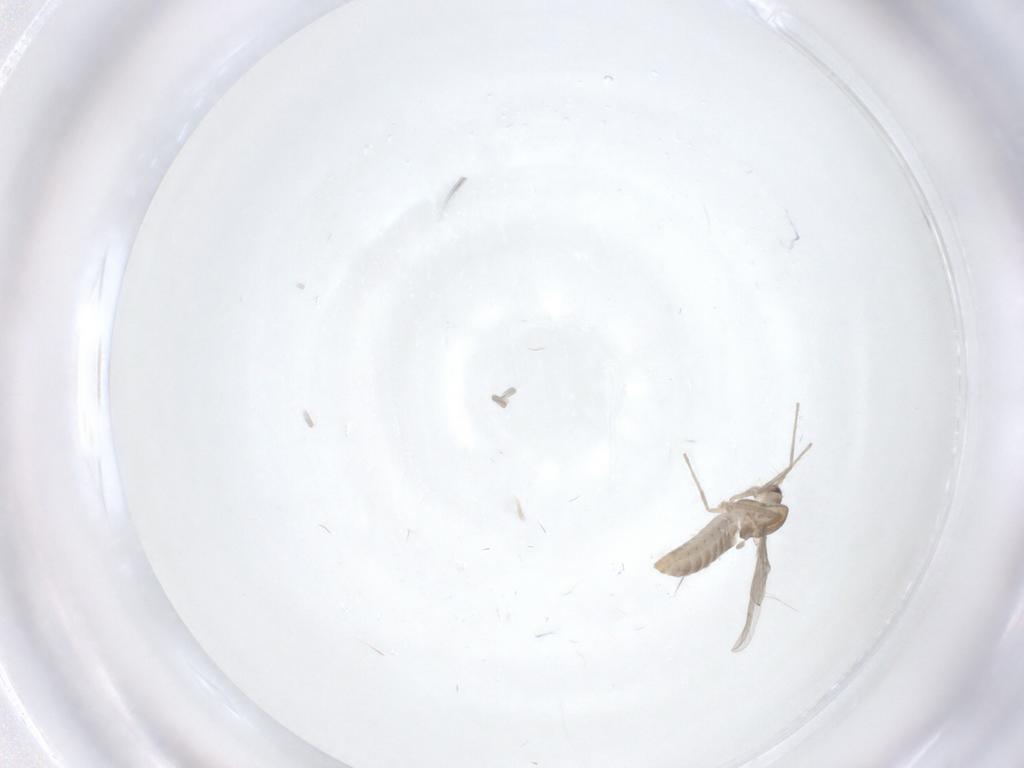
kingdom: Animalia
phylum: Arthropoda
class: Insecta
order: Diptera
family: Chironomidae
